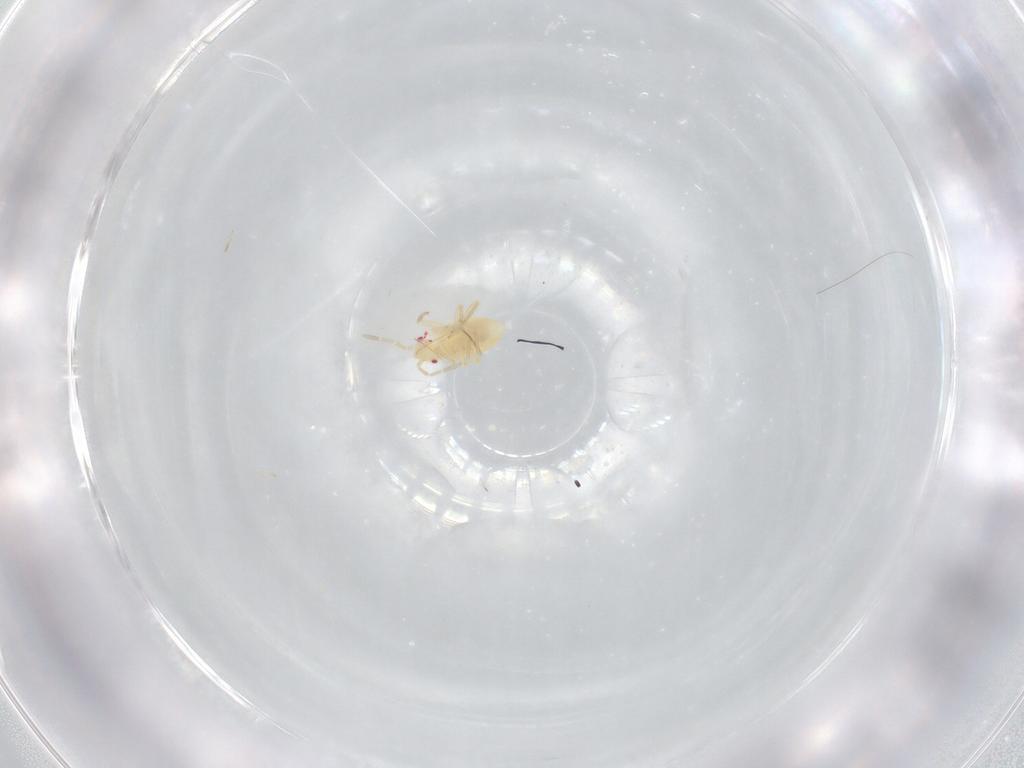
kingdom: Animalia
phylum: Arthropoda
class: Insecta
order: Hemiptera
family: Miridae
